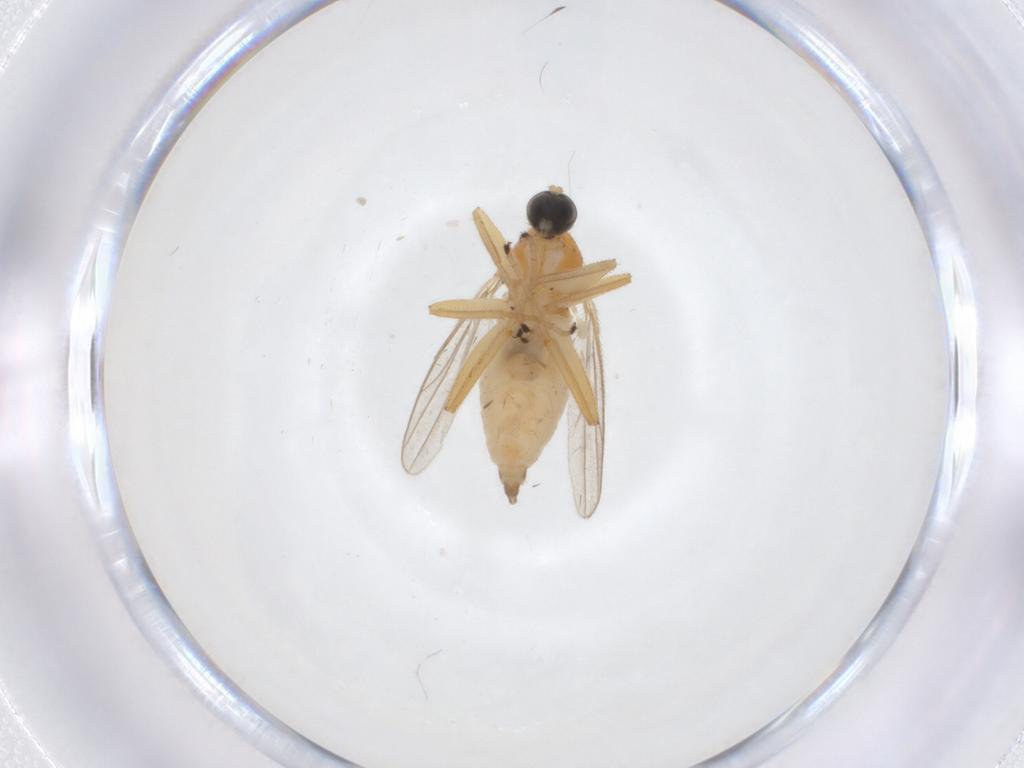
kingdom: Animalia
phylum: Arthropoda
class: Insecta
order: Diptera
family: Hybotidae
